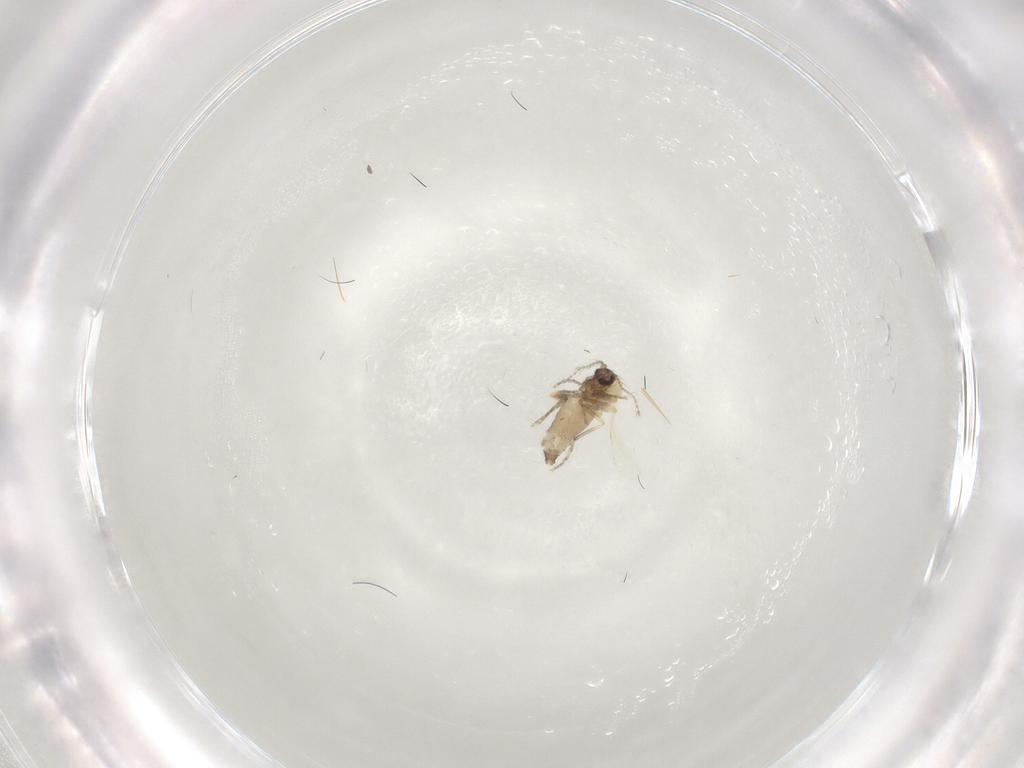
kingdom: Animalia
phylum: Arthropoda
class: Insecta
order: Diptera
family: Ceratopogonidae
